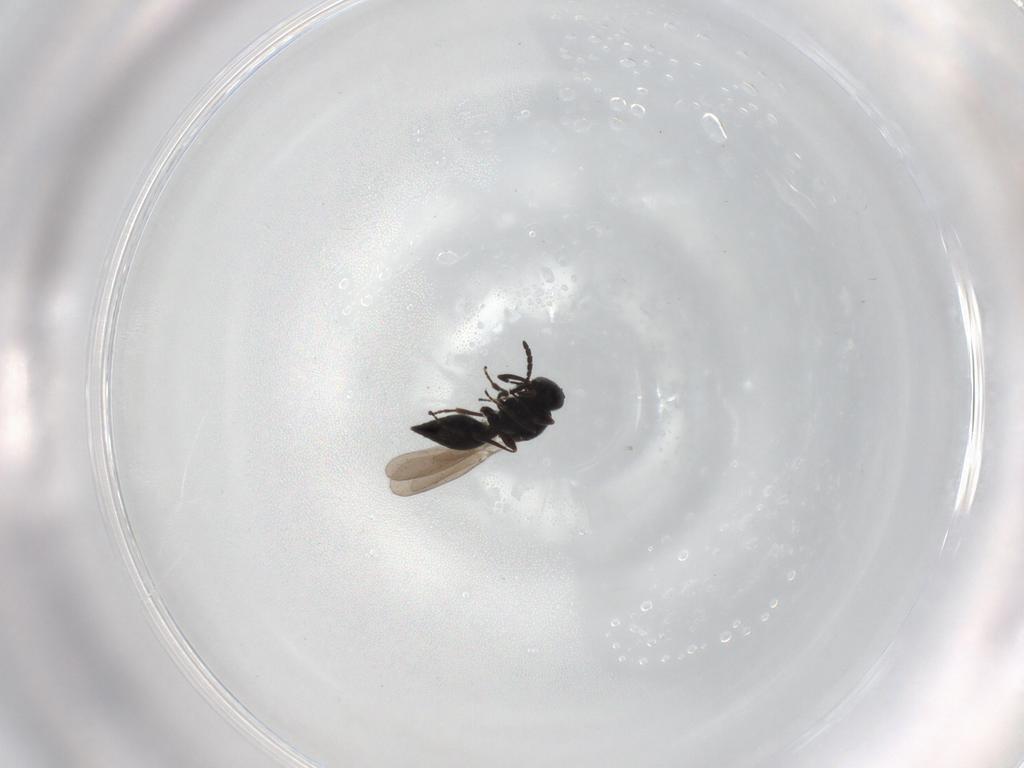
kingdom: Animalia
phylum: Arthropoda
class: Insecta
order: Hymenoptera
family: Platygastridae
